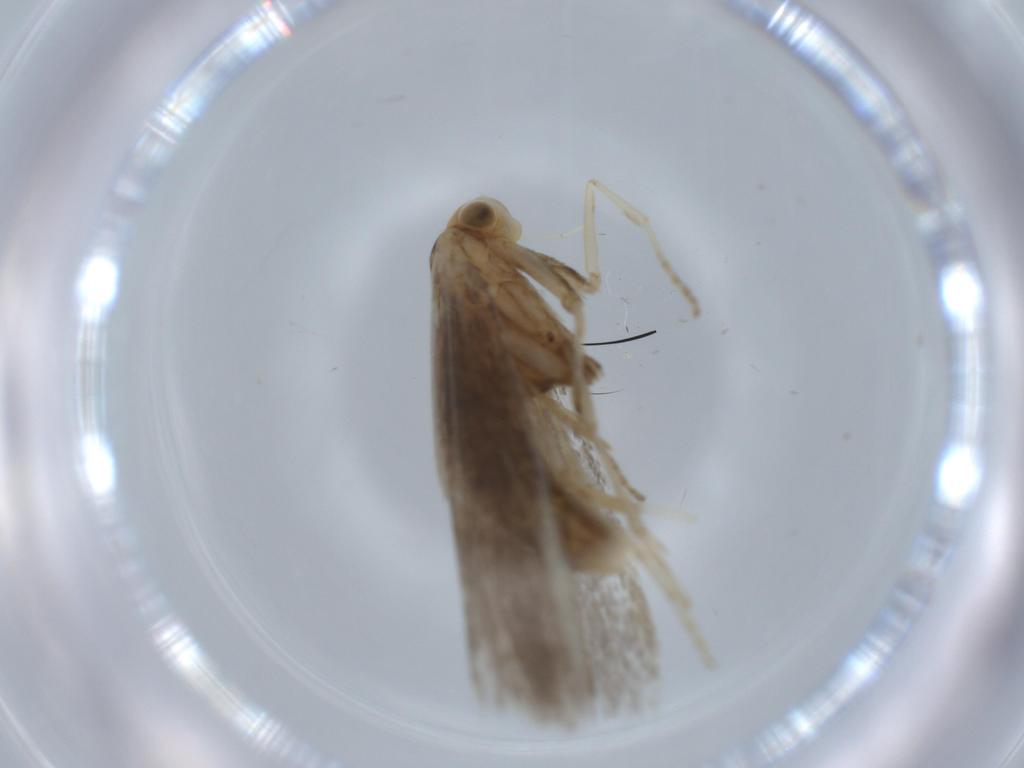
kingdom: Animalia
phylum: Arthropoda
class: Insecta
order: Lepidoptera
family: Argyresthiidae
